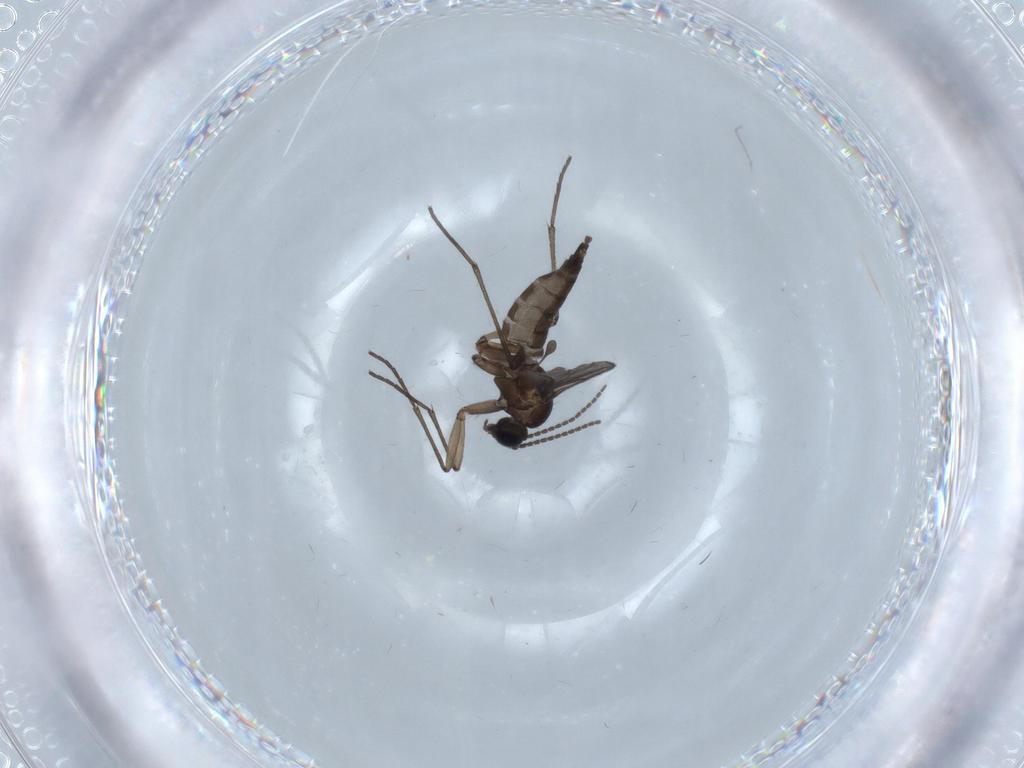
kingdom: Animalia
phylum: Arthropoda
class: Insecta
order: Diptera
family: Sciaridae
